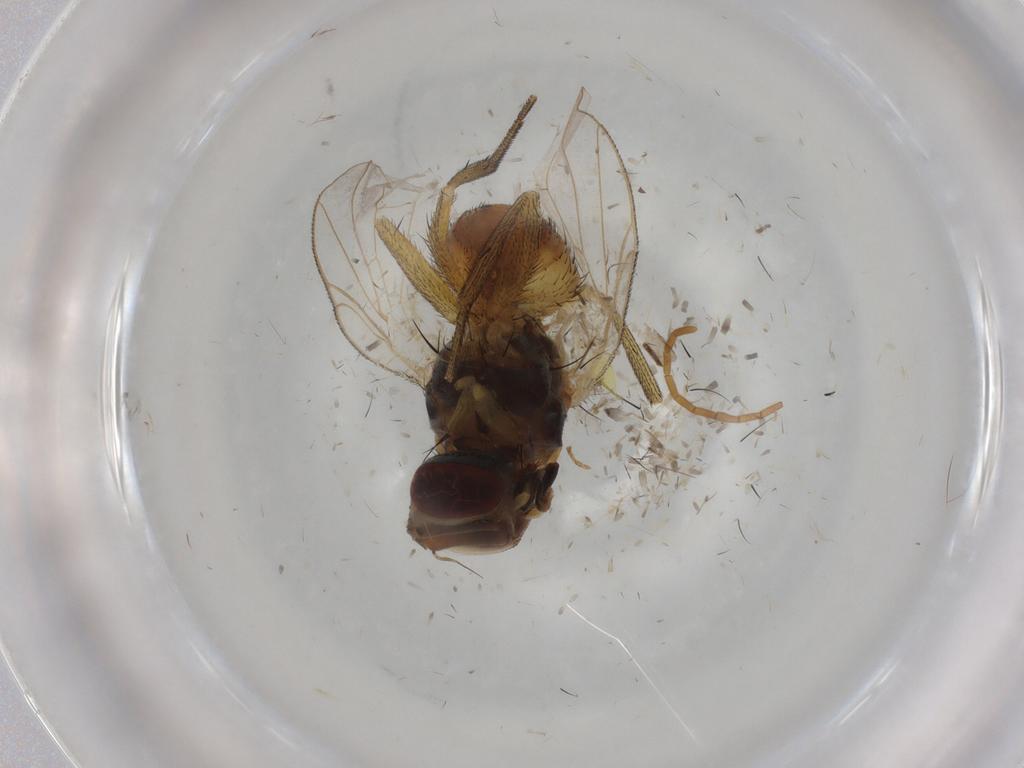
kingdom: Animalia
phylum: Arthropoda
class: Insecta
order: Diptera
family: Muscidae
